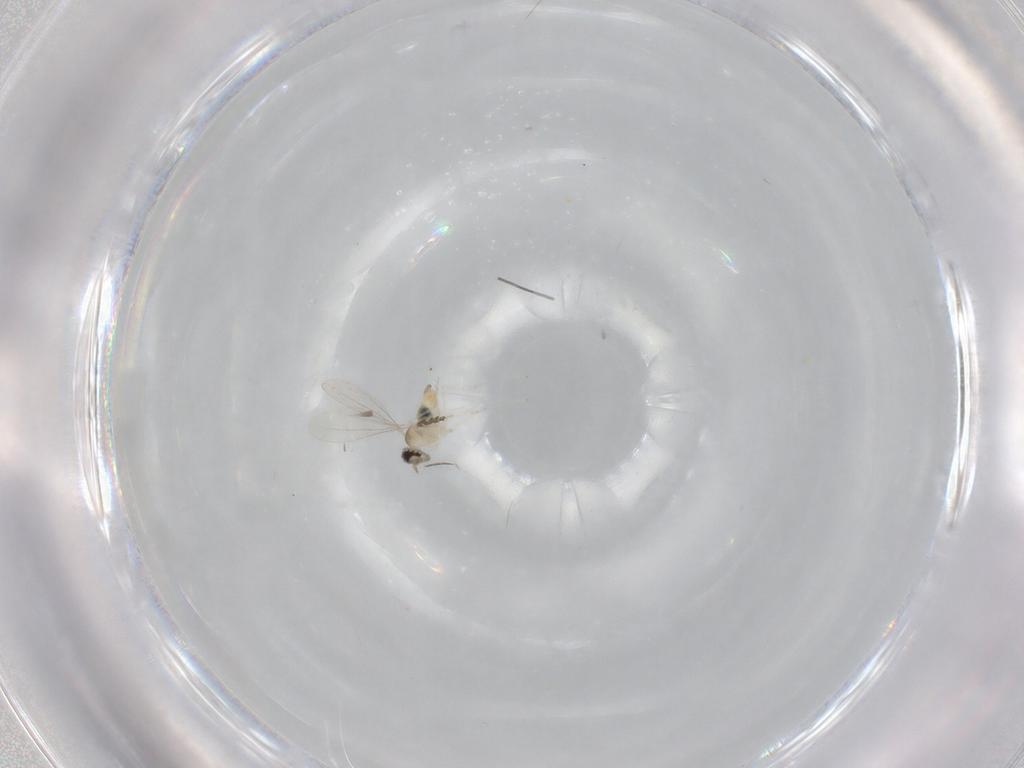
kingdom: Animalia
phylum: Arthropoda
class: Insecta
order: Diptera
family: Cecidomyiidae
